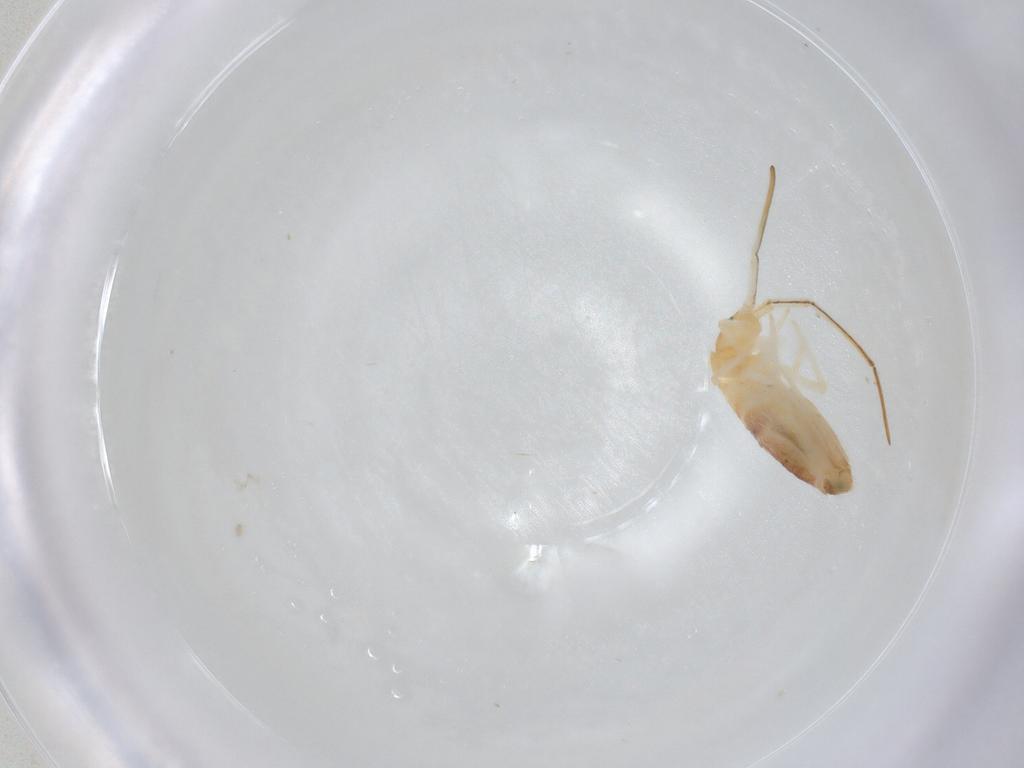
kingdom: Animalia
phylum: Arthropoda
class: Collembola
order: Entomobryomorpha
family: Entomobryidae
